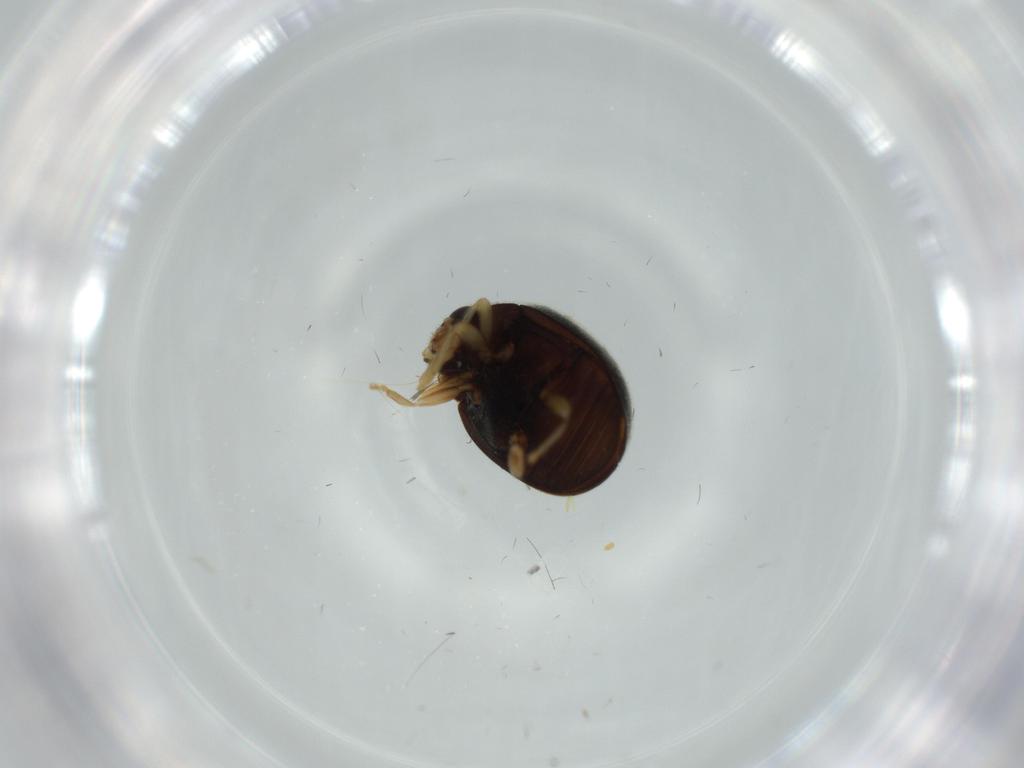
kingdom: Animalia
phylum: Arthropoda
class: Insecta
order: Coleoptera
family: Coccinellidae
